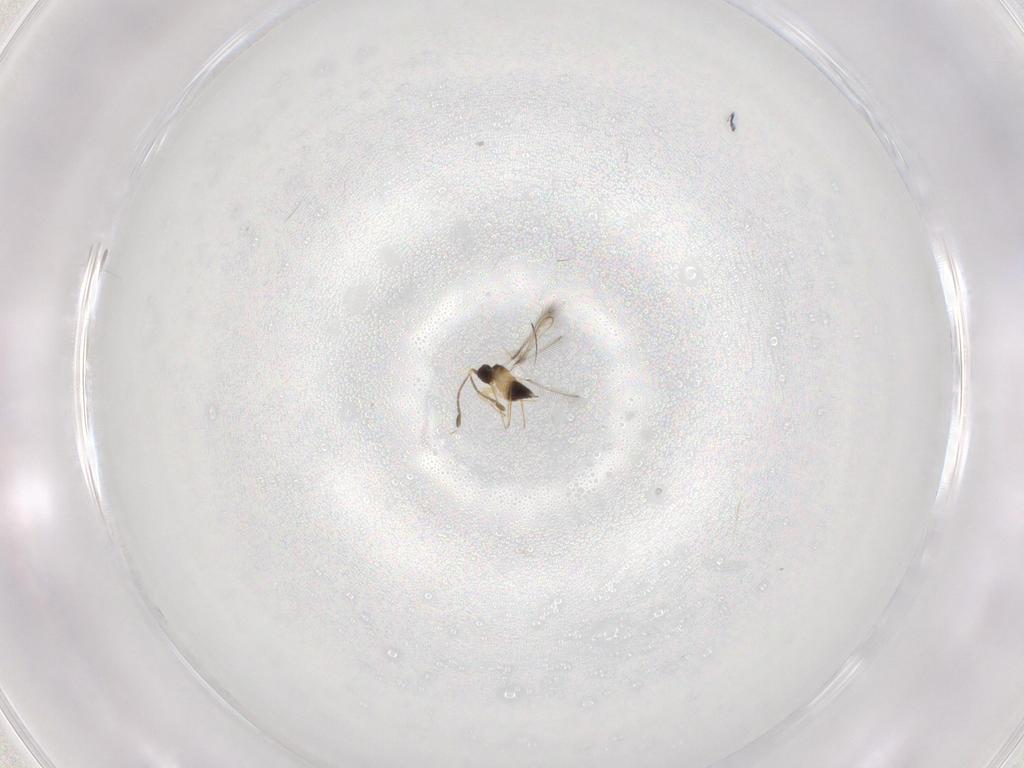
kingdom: Animalia
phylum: Arthropoda
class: Insecta
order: Hymenoptera
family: Mymaridae
